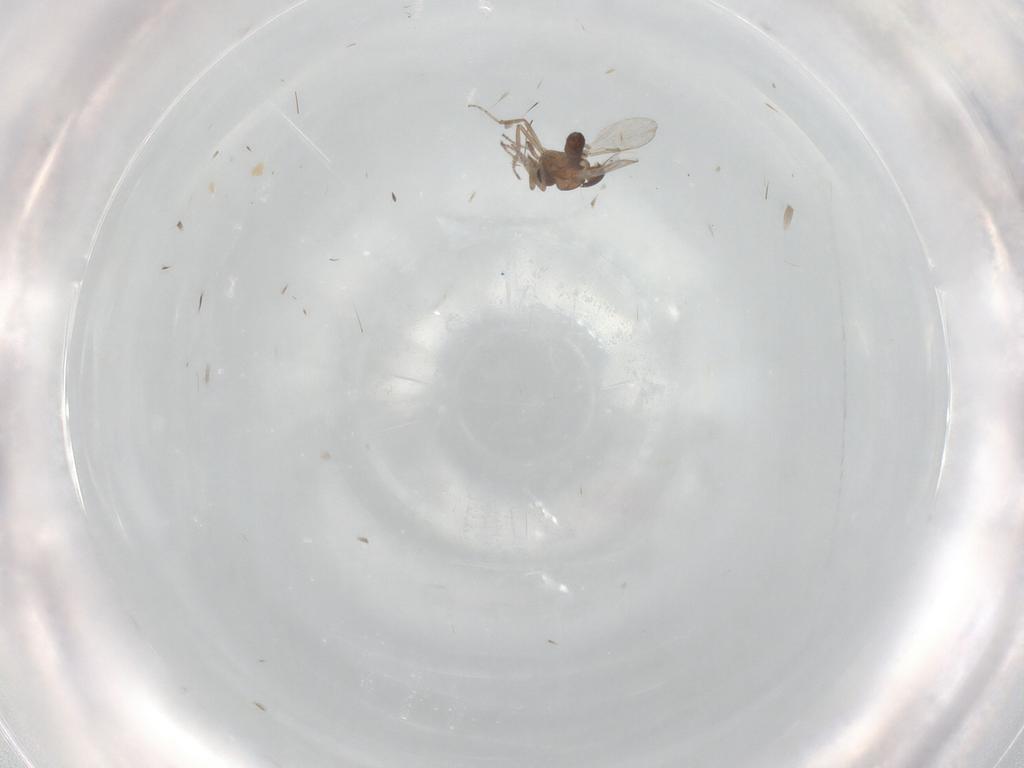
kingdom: Animalia
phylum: Arthropoda
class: Insecta
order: Diptera
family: Ceratopogonidae
